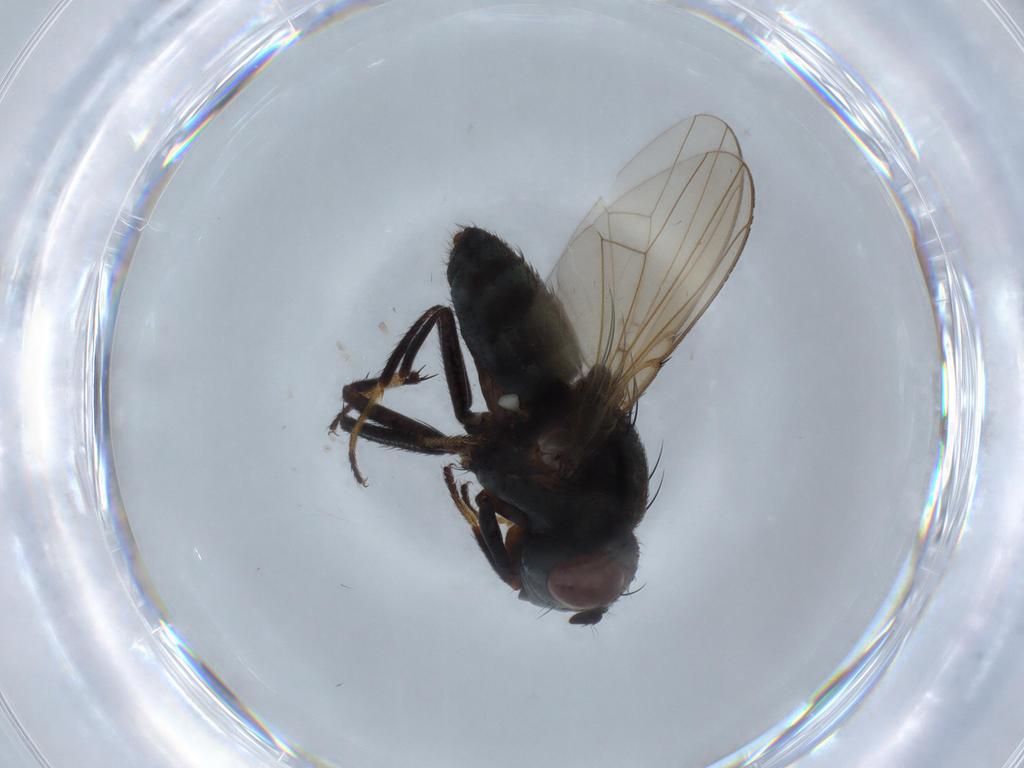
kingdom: Animalia
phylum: Arthropoda
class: Insecta
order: Diptera
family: Ephydridae
